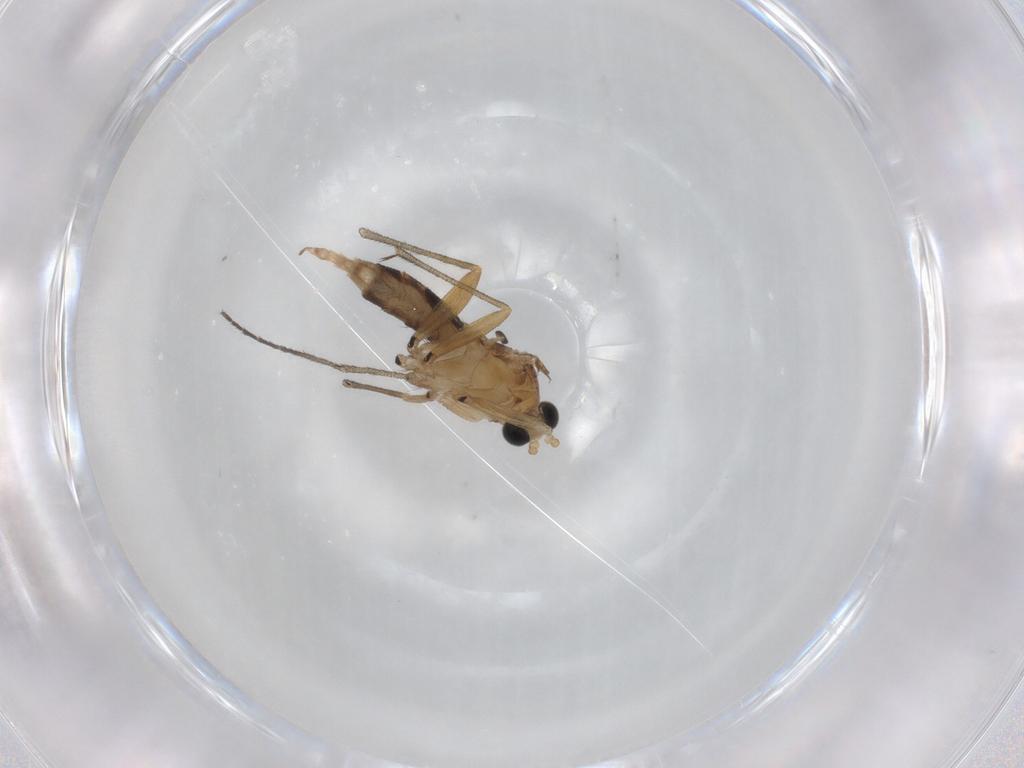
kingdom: Animalia
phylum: Arthropoda
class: Insecta
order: Diptera
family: Sciaridae
